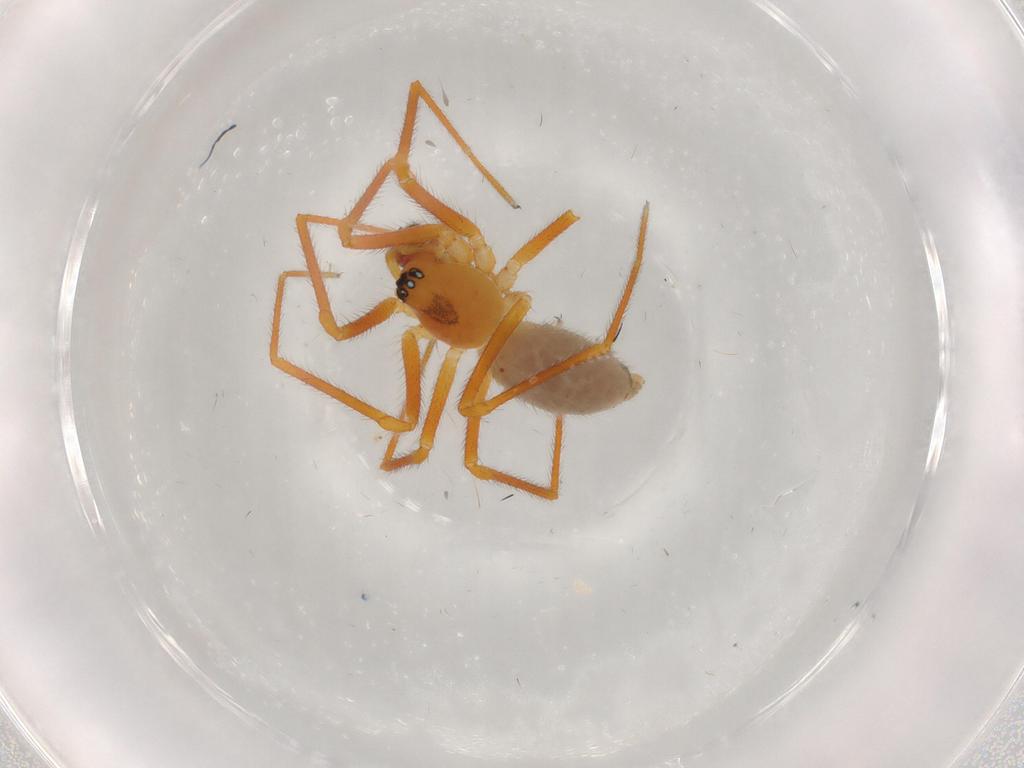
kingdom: Animalia
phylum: Arthropoda
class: Arachnida
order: Araneae
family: Linyphiidae
